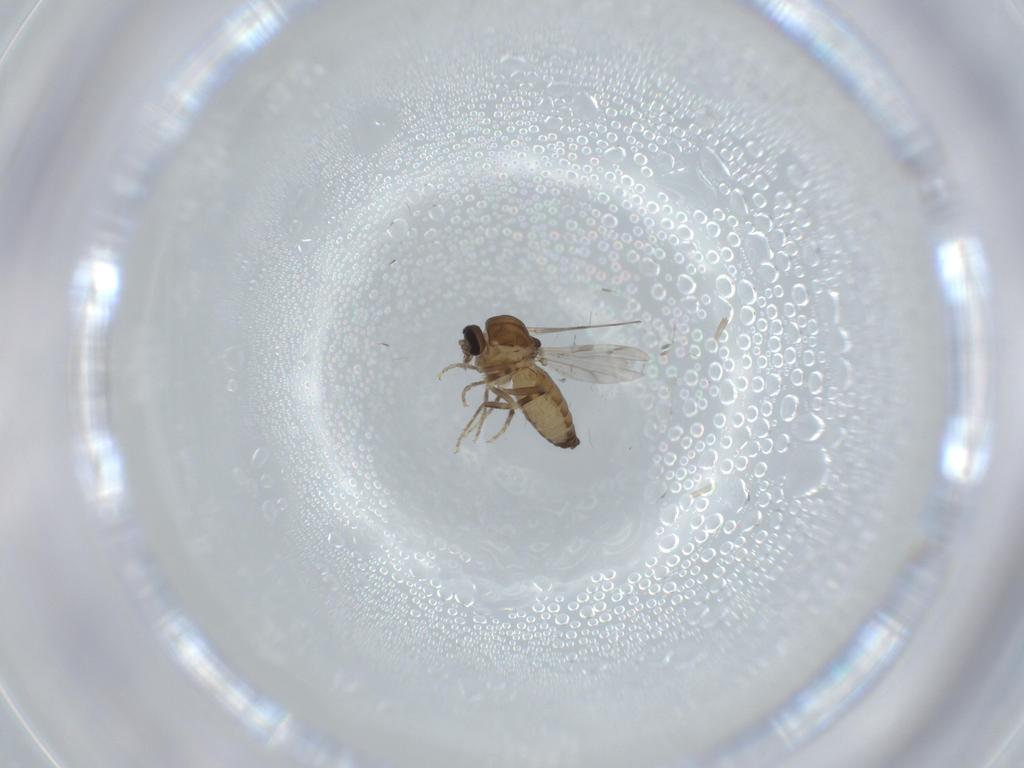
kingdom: Animalia
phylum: Arthropoda
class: Insecta
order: Diptera
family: Ceratopogonidae
